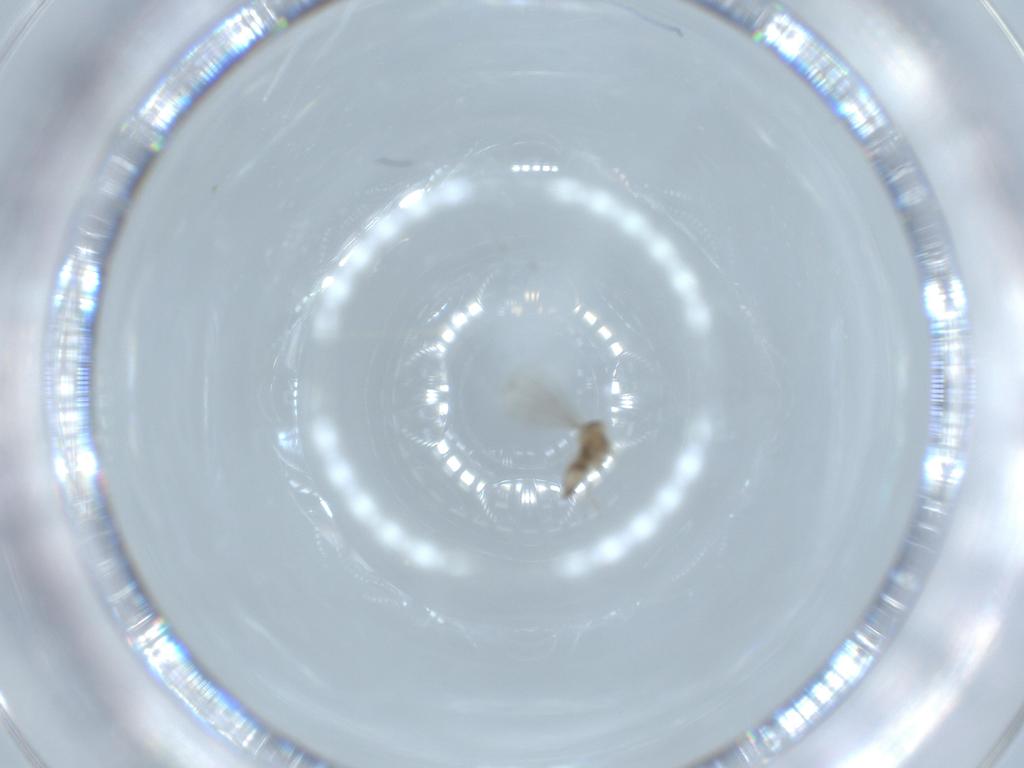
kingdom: Animalia
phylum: Arthropoda
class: Insecta
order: Diptera
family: Cecidomyiidae
